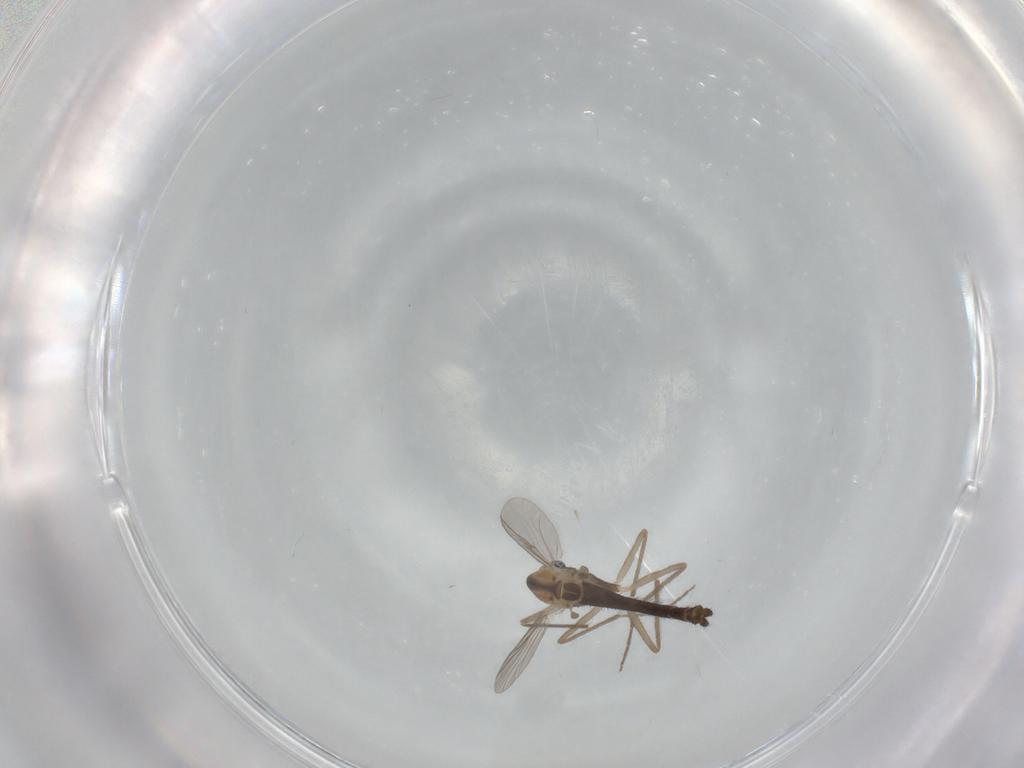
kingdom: Animalia
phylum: Arthropoda
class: Insecta
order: Diptera
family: Chironomidae
